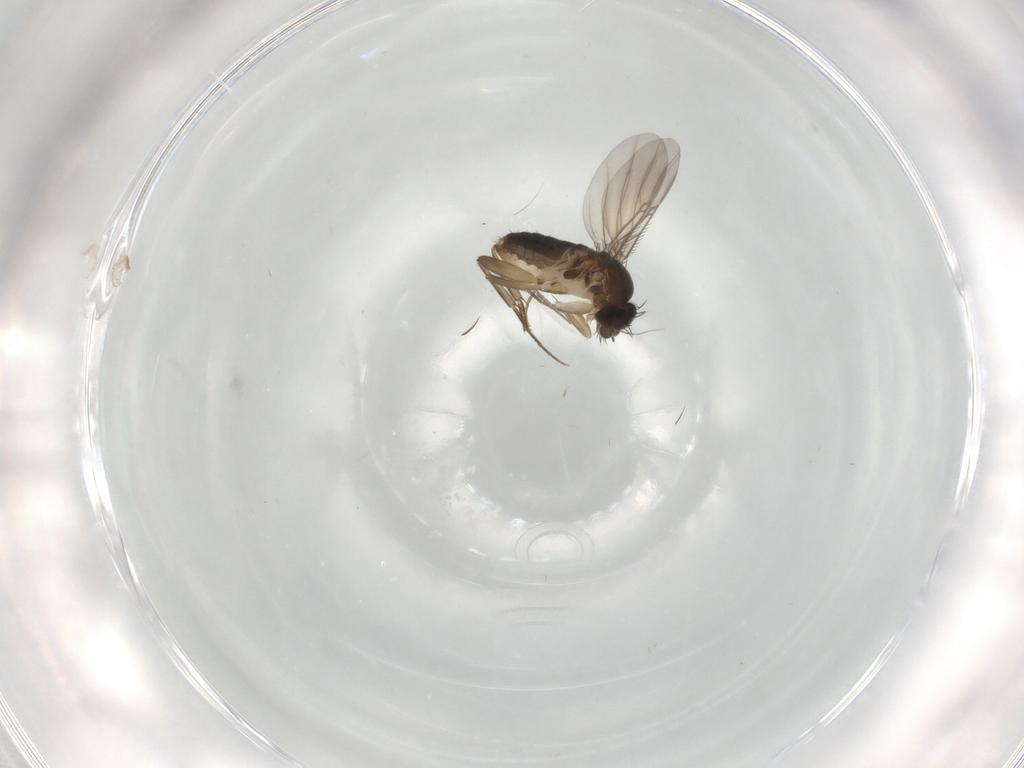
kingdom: Animalia
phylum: Arthropoda
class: Insecta
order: Diptera
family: Phoridae
